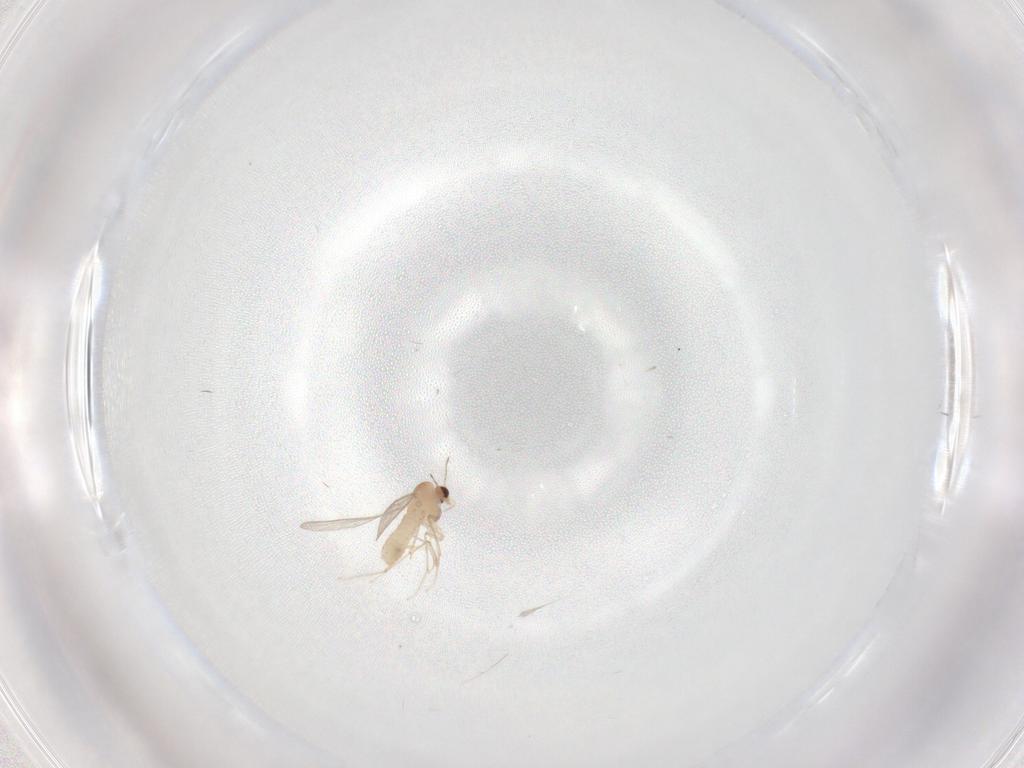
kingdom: Animalia
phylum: Arthropoda
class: Insecta
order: Diptera
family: Chironomidae
